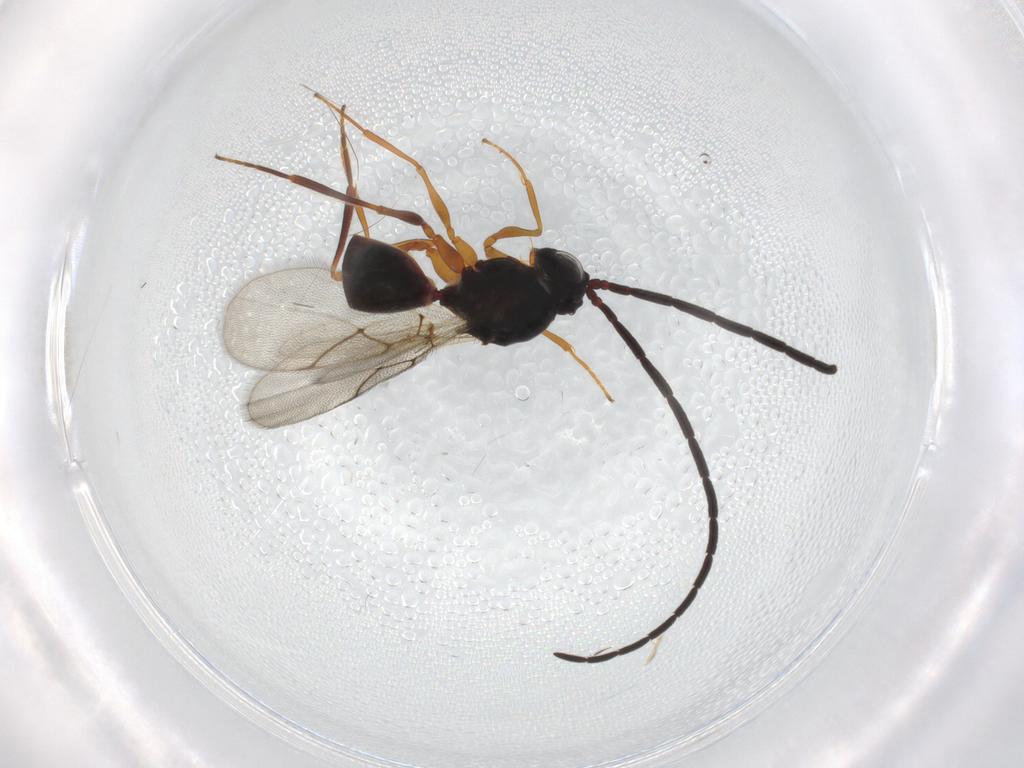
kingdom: Animalia
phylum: Arthropoda
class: Insecta
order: Hymenoptera
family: Figitidae
